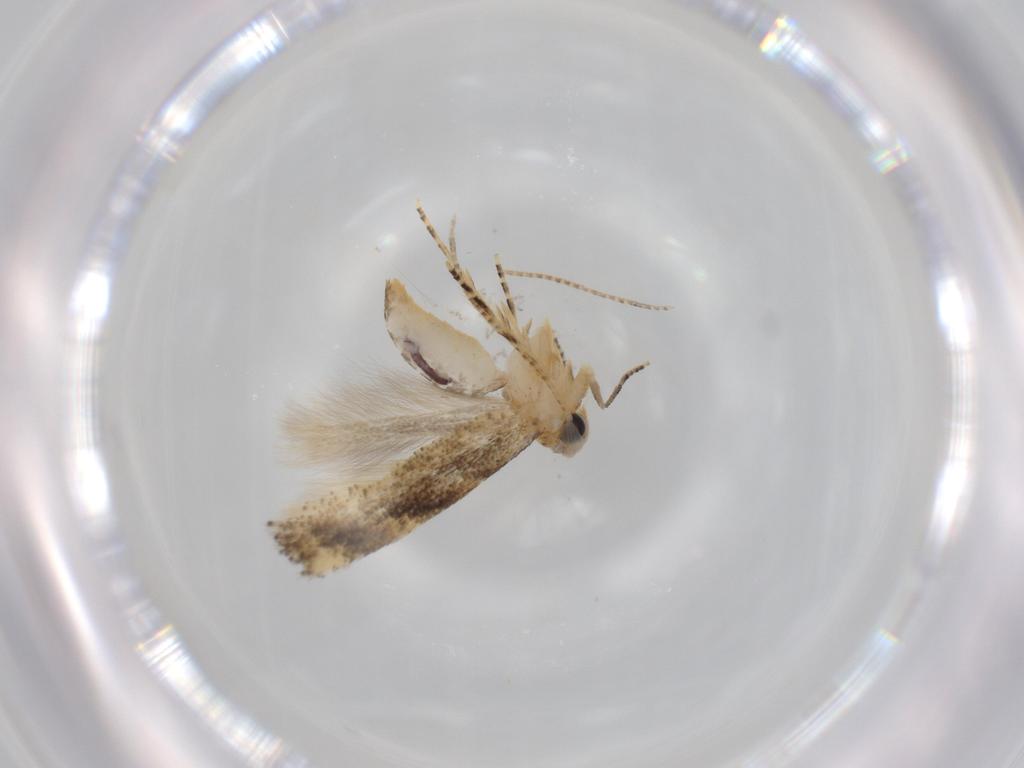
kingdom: Animalia
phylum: Arthropoda
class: Insecta
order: Lepidoptera
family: Bucculatricidae
